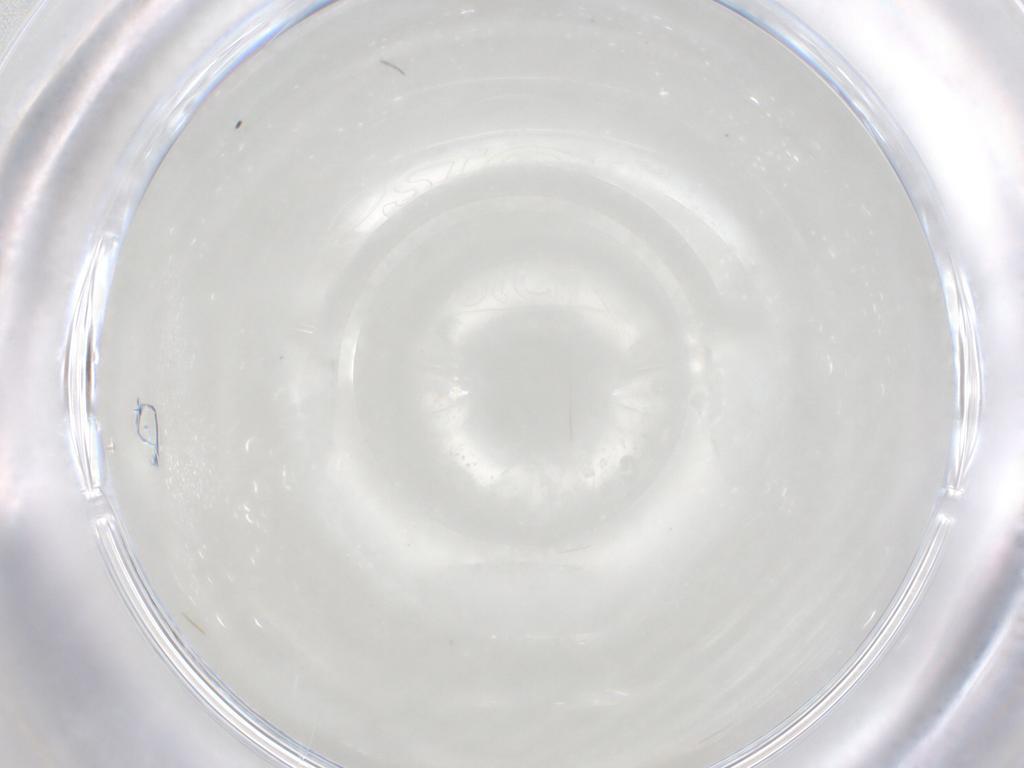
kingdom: Animalia
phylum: Arthropoda
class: Insecta
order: Diptera
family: Sciaridae
